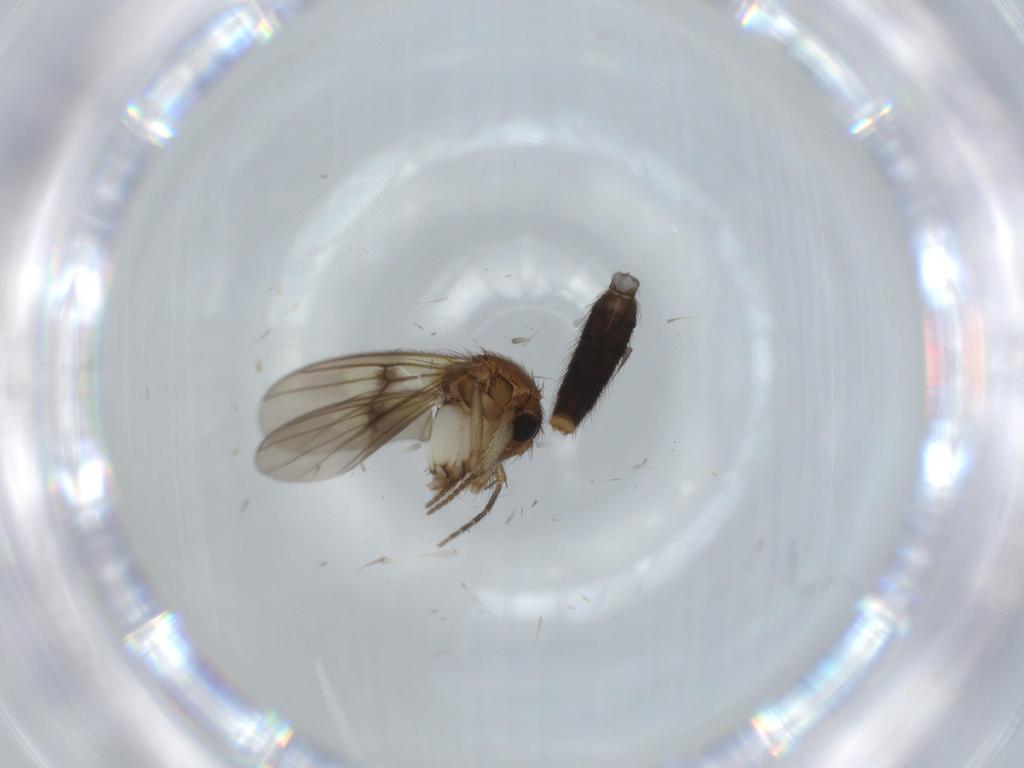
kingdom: Animalia
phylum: Arthropoda
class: Insecta
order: Diptera
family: Mycetophilidae
